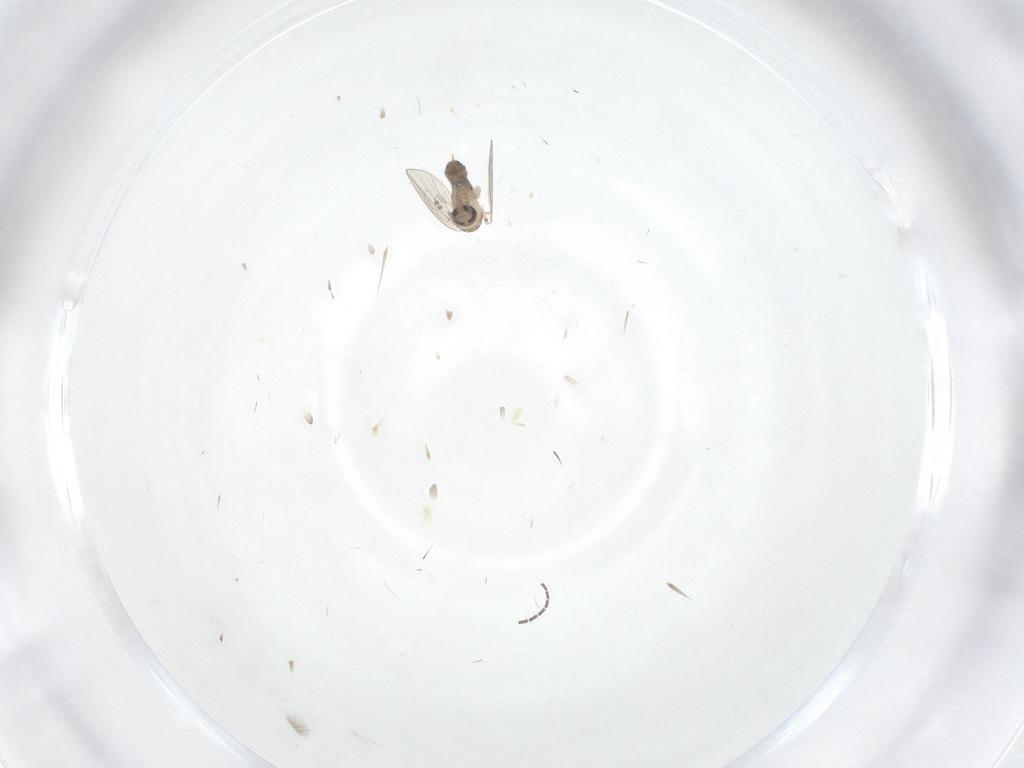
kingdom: Animalia
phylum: Arthropoda
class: Insecta
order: Diptera
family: Psychodidae
